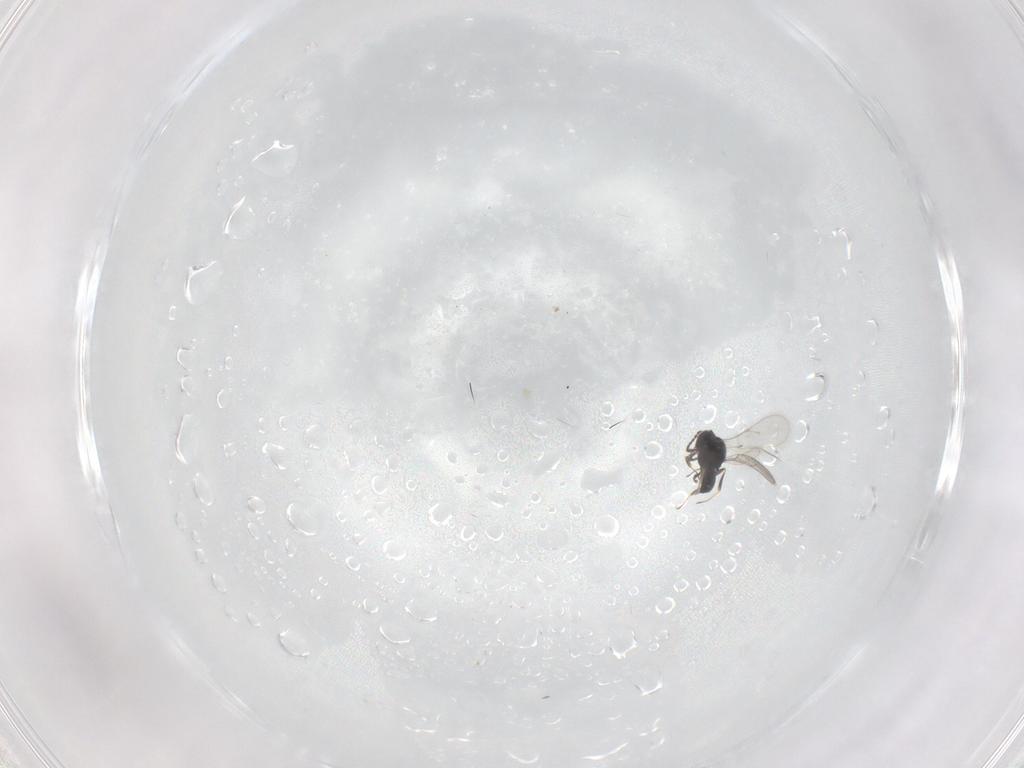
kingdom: Animalia
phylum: Arthropoda
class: Insecta
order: Hymenoptera
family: Scelionidae
